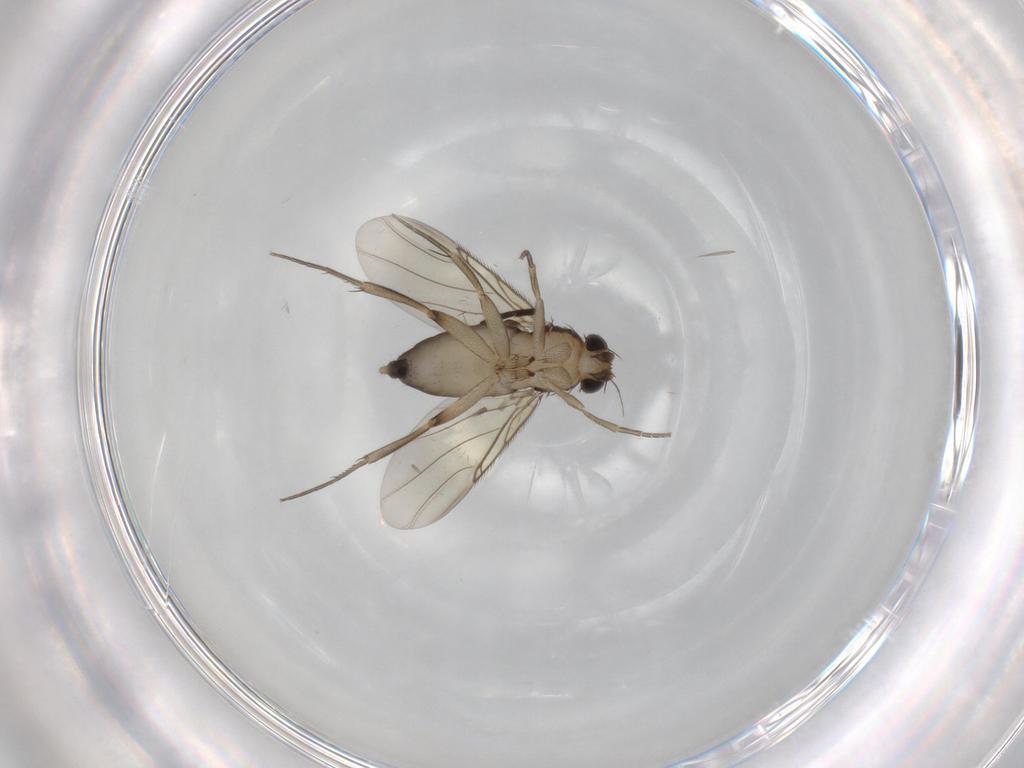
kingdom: Animalia
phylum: Arthropoda
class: Insecta
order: Diptera
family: Phoridae
